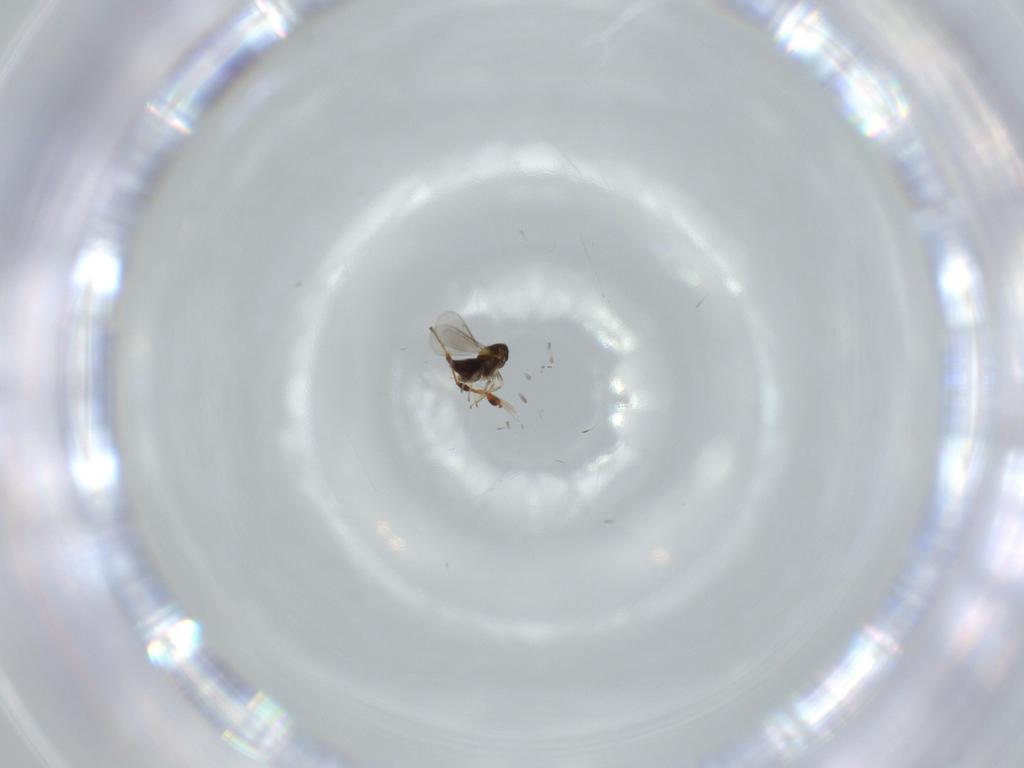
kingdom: Animalia
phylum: Arthropoda
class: Insecta
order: Hymenoptera
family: Aphelinidae
